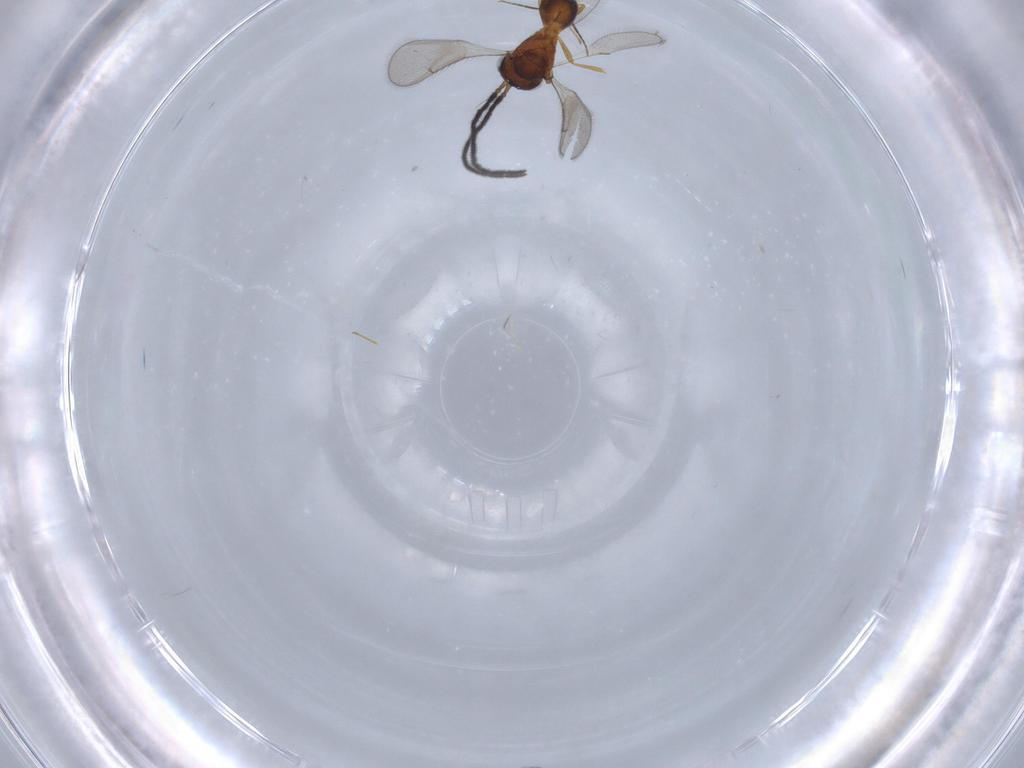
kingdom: Animalia
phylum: Arthropoda
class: Insecta
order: Hymenoptera
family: Scelionidae
